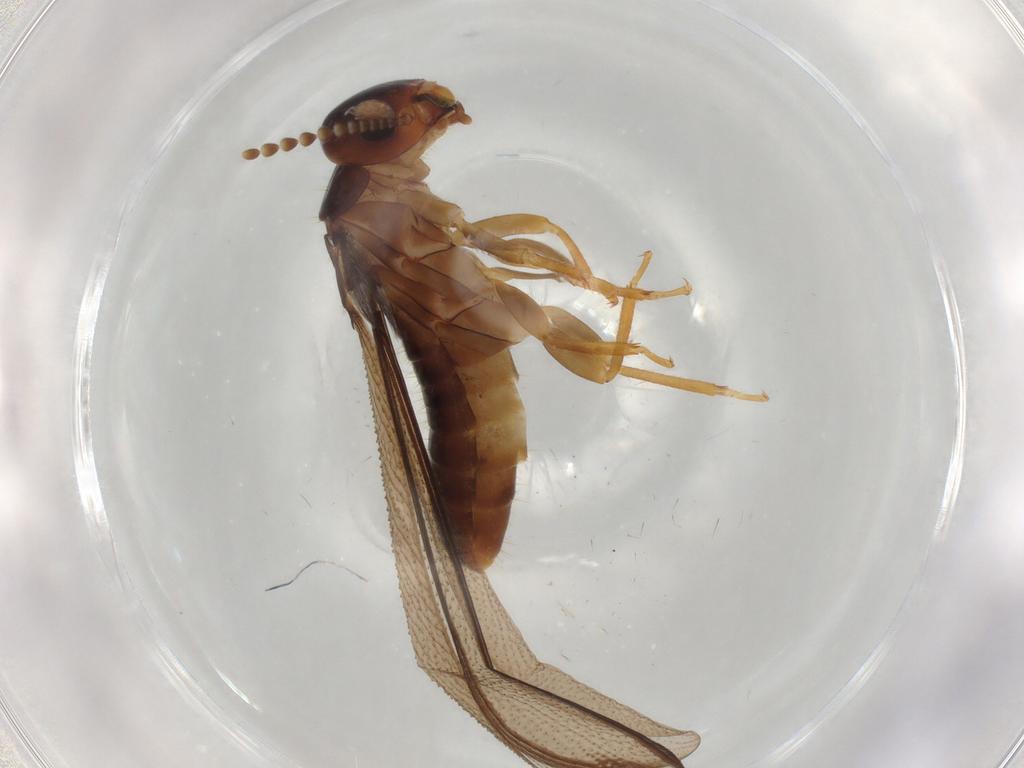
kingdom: Animalia
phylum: Arthropoda
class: Insecta
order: Blattodea
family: Kalotermitidae
